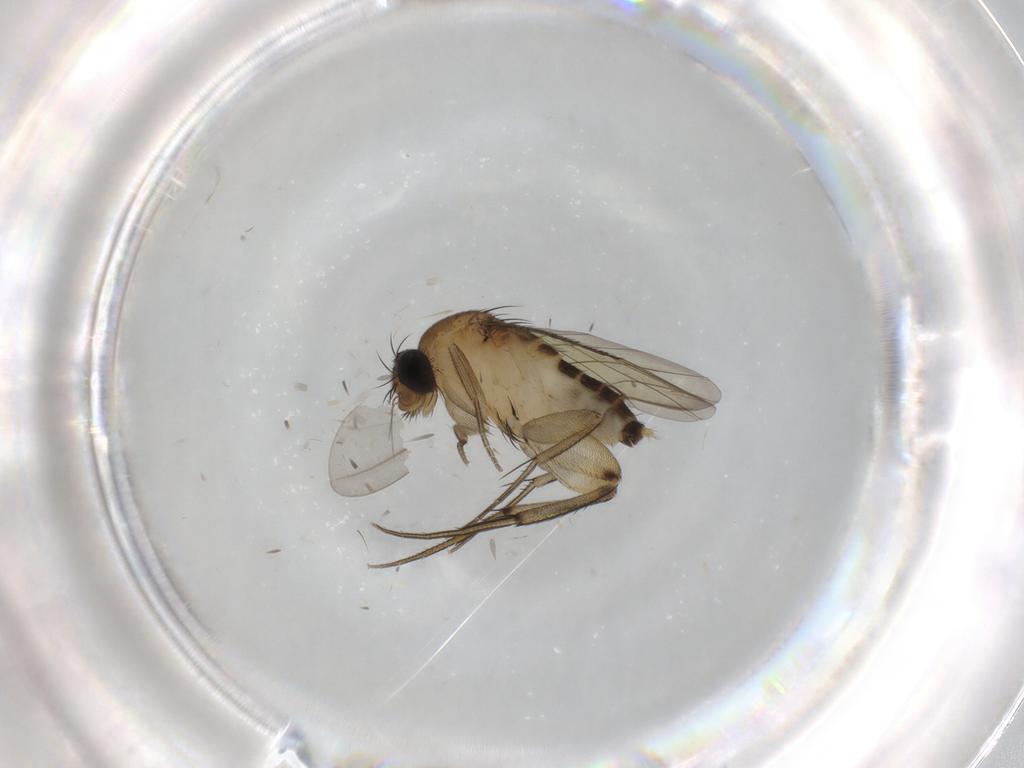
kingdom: Animalia
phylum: Arthropoda
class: Insecta
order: Diptera
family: Phoridae
